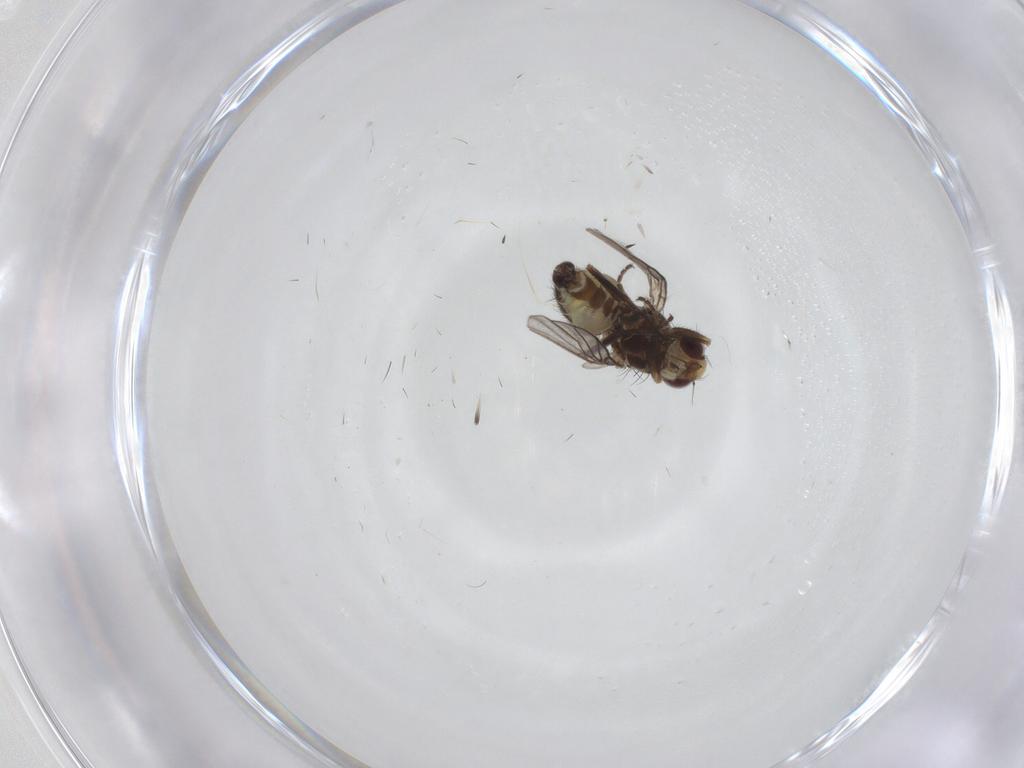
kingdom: Animalia
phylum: Arthropoda
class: Insecta
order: Diptera
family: Agromyzidae
